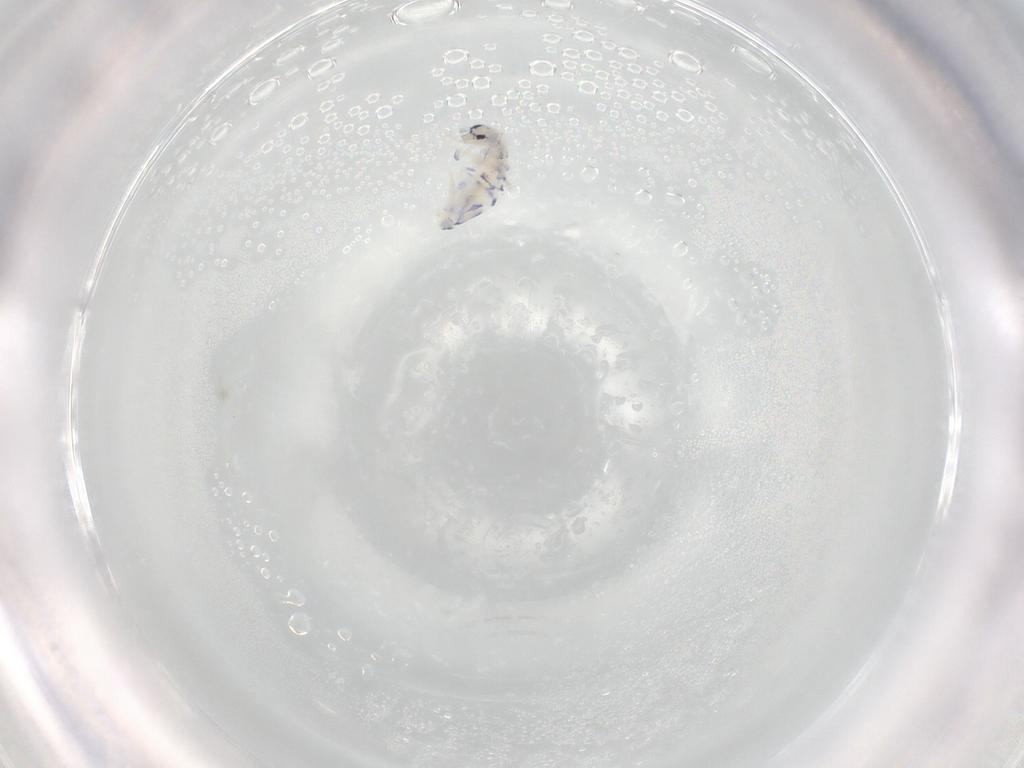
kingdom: Animalia
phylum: Arthropoda
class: Collembola
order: Entomobryomorpha
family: Entomobryidae
